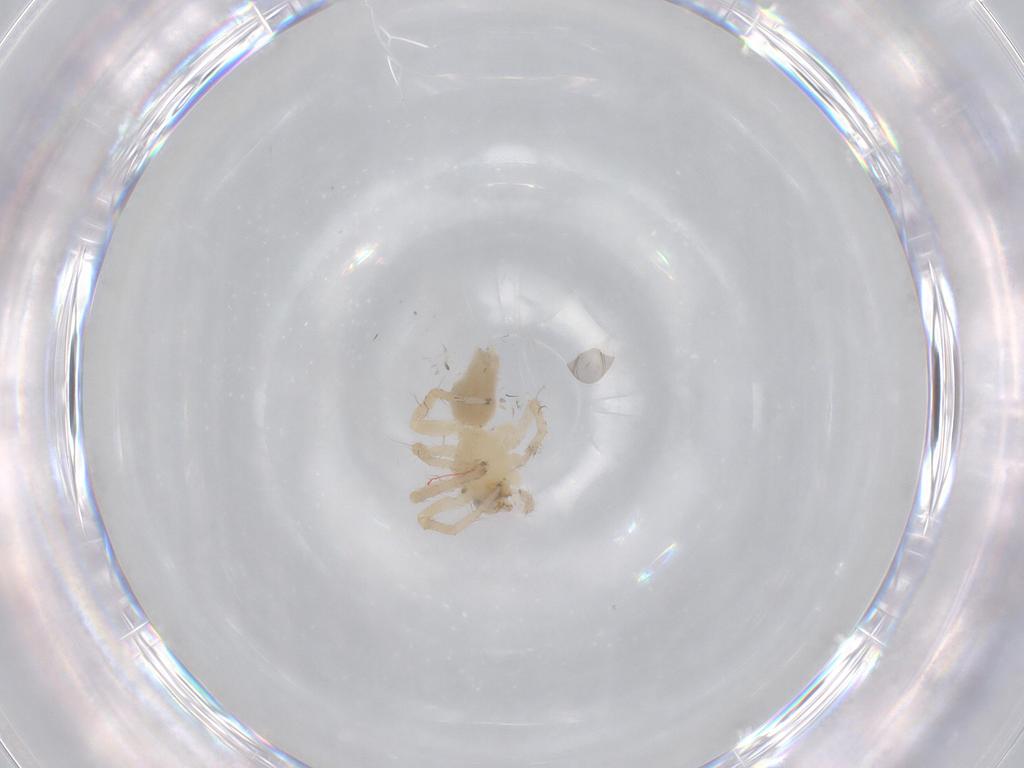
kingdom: Animalia
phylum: Arthropoda
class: Arachnida
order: Araneae
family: Anyphaenidae
